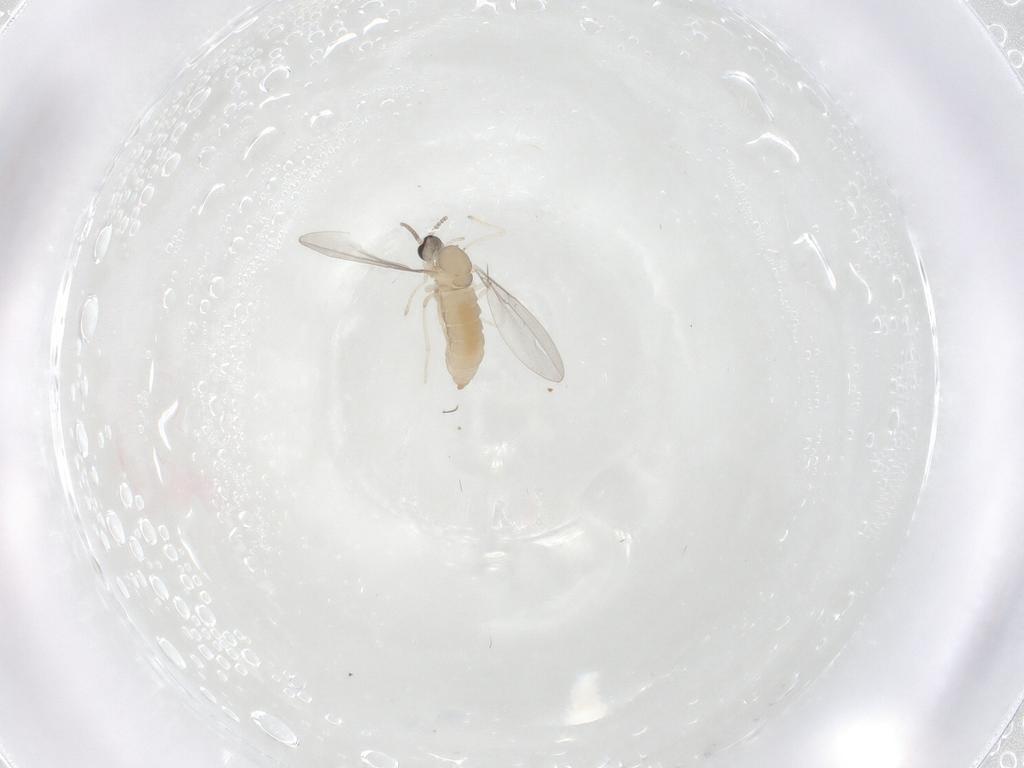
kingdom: Animalia
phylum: Arthropoda
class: Insecta
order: Diptera
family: Cecidomyiidae
